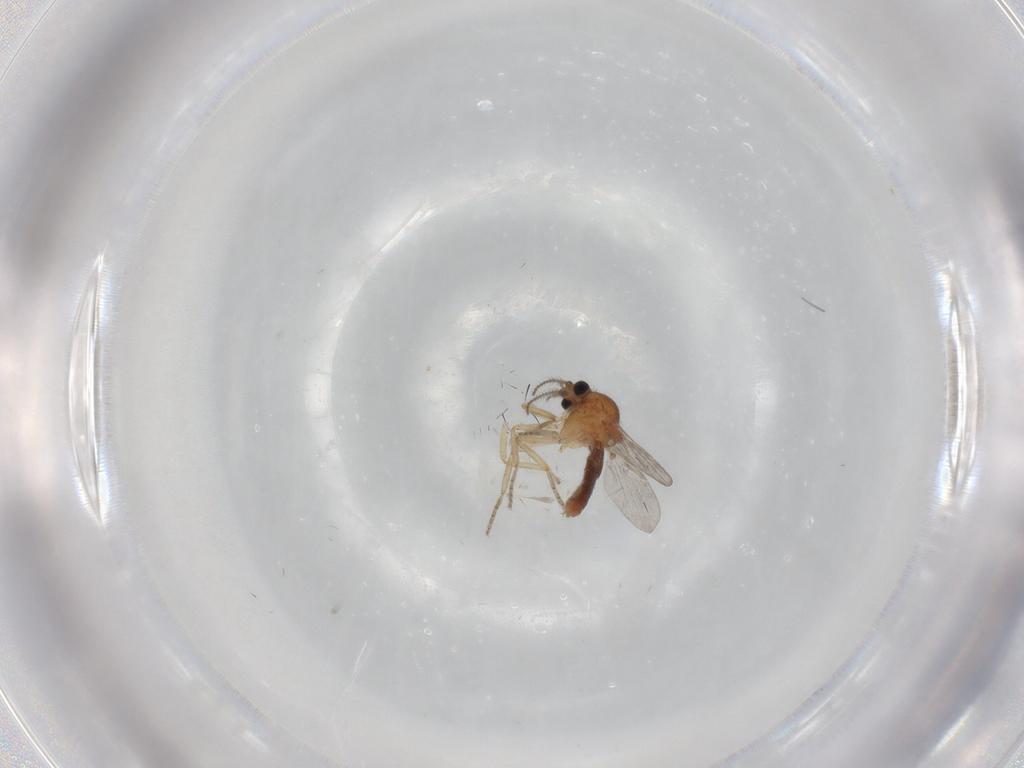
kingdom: Animalia
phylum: Arthropoda
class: Insecta
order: Diptera
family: Ceratopogonidae
